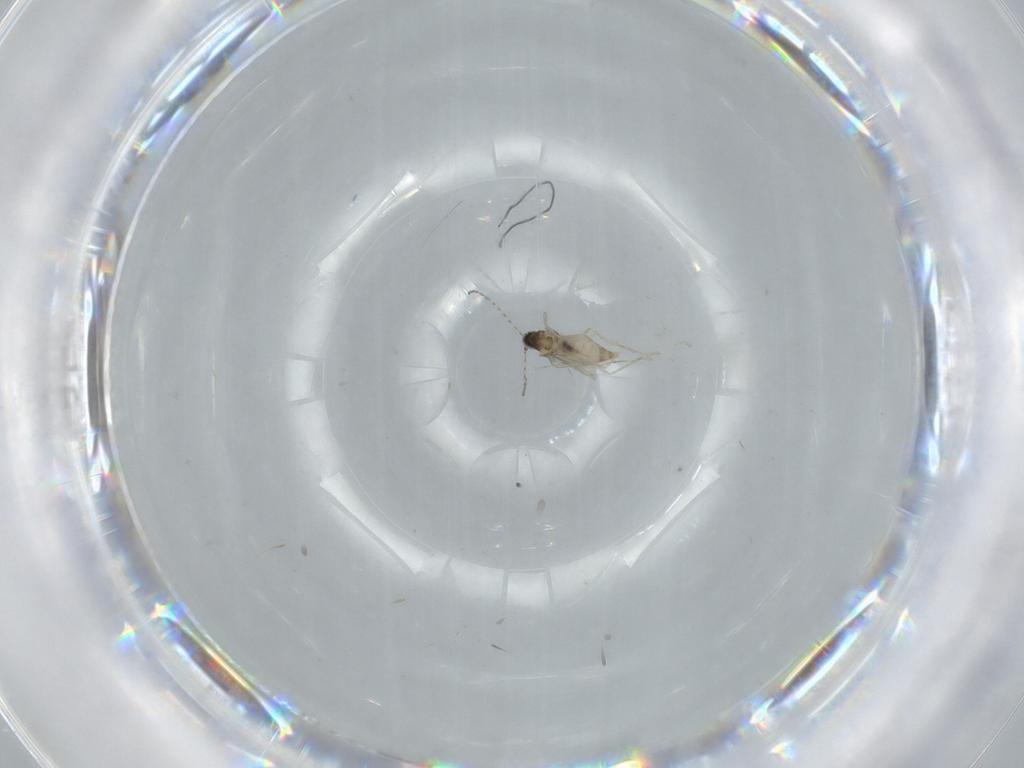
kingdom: Animalia
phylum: Arthropoda
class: Insecta
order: Diptera
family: Cecidomyiidae
